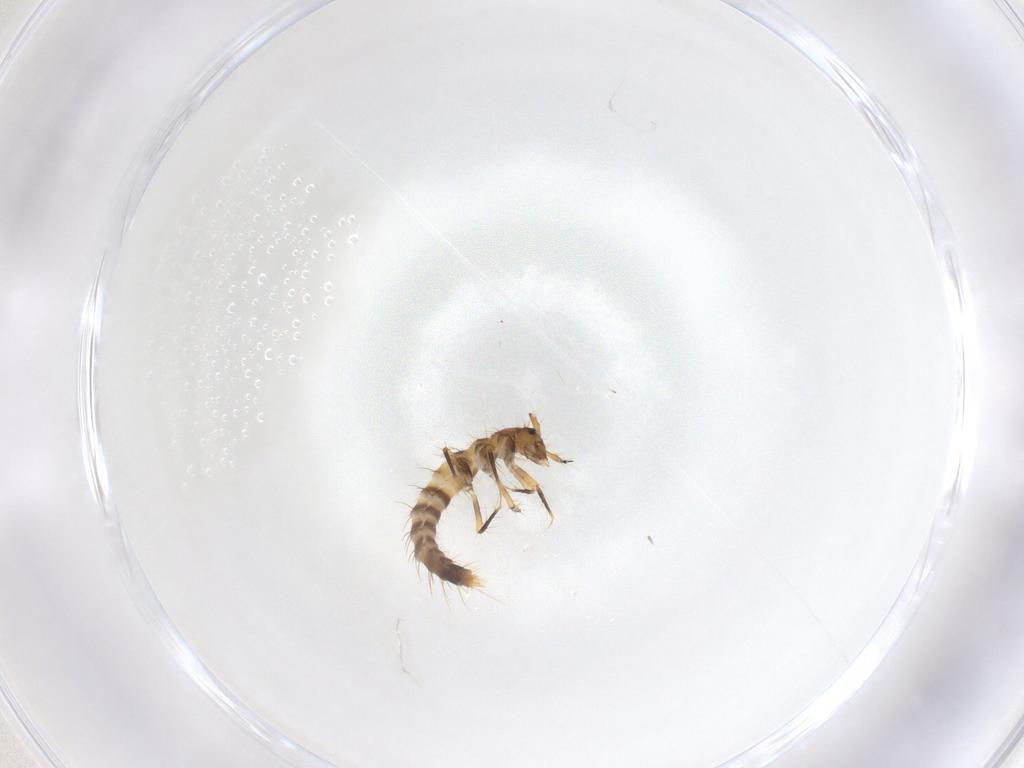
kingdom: Animalia
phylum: Arthropoda
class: Insecta
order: Coleoptera
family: Staphylinidae
